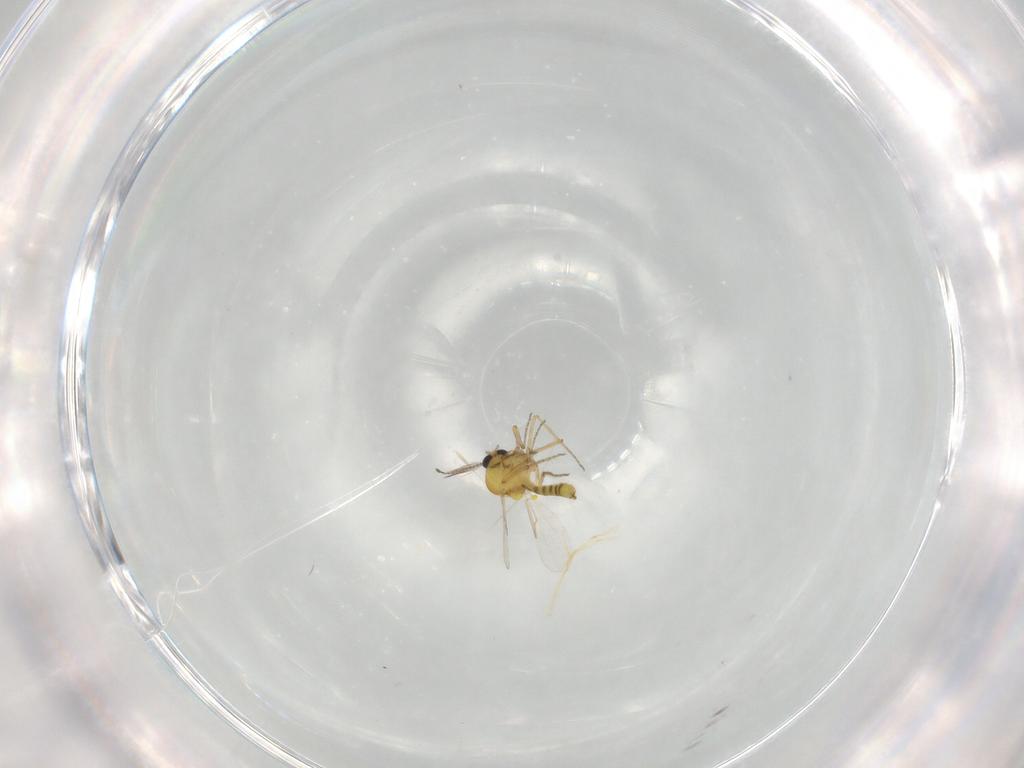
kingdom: Animalia
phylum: Arthropoda
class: Insecta
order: Diptera
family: Ceratopogonidae
